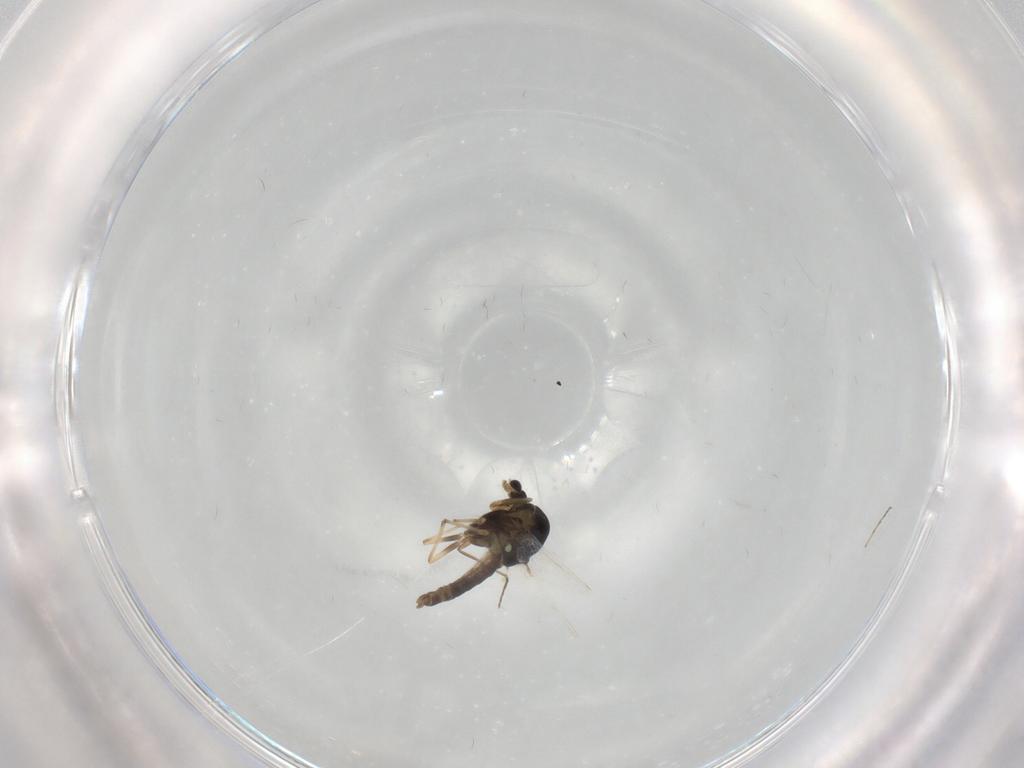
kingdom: Animalia
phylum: Arthropoda
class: Insecta
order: Diptera
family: Chironomidae
